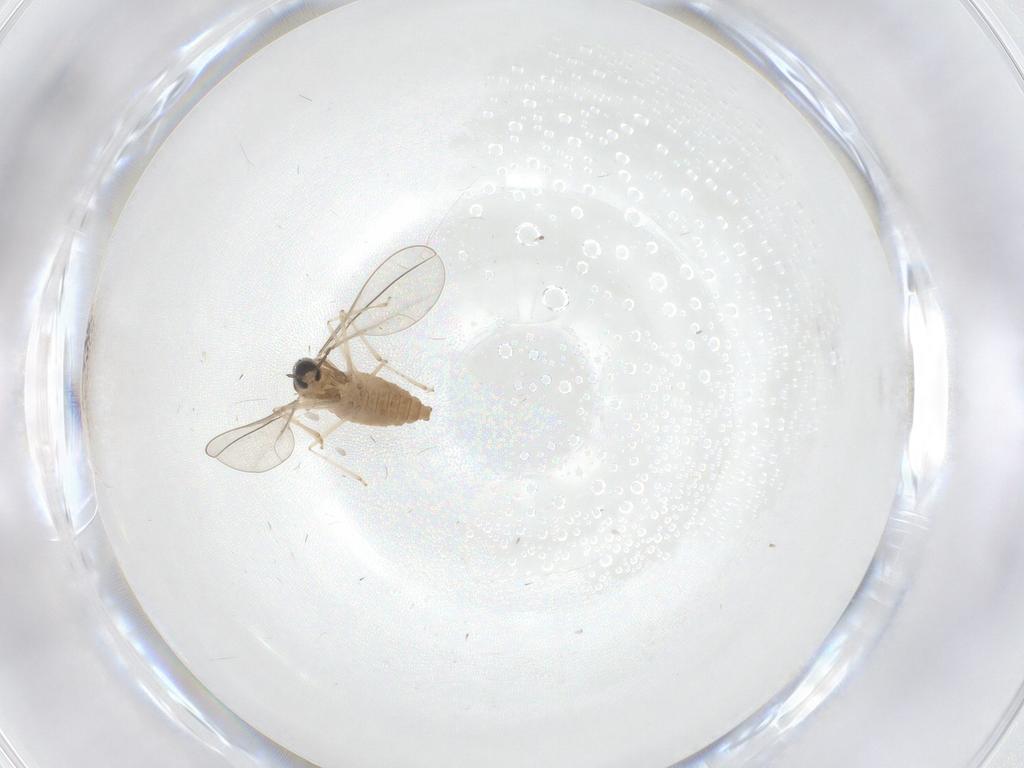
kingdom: Animalia
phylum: Arthropoda
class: Insecta
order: Diptera
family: Cecidomyiidae
